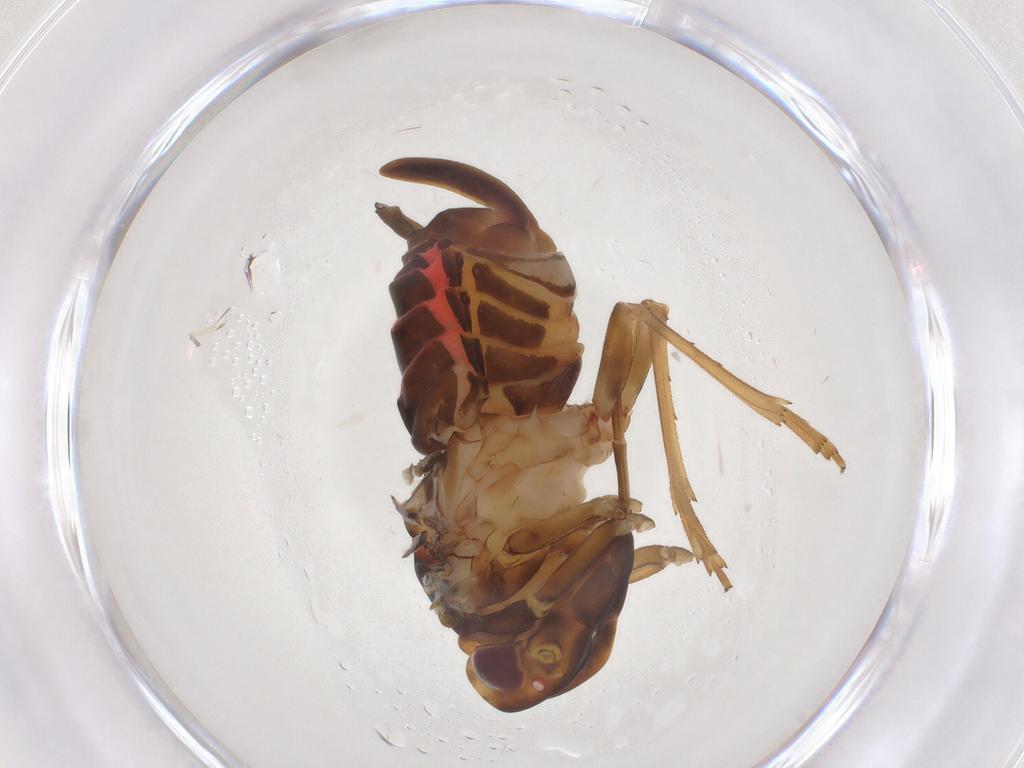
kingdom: Animalia
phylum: Arthropoda
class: Insecta
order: Hemiptera
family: Cixiidae
